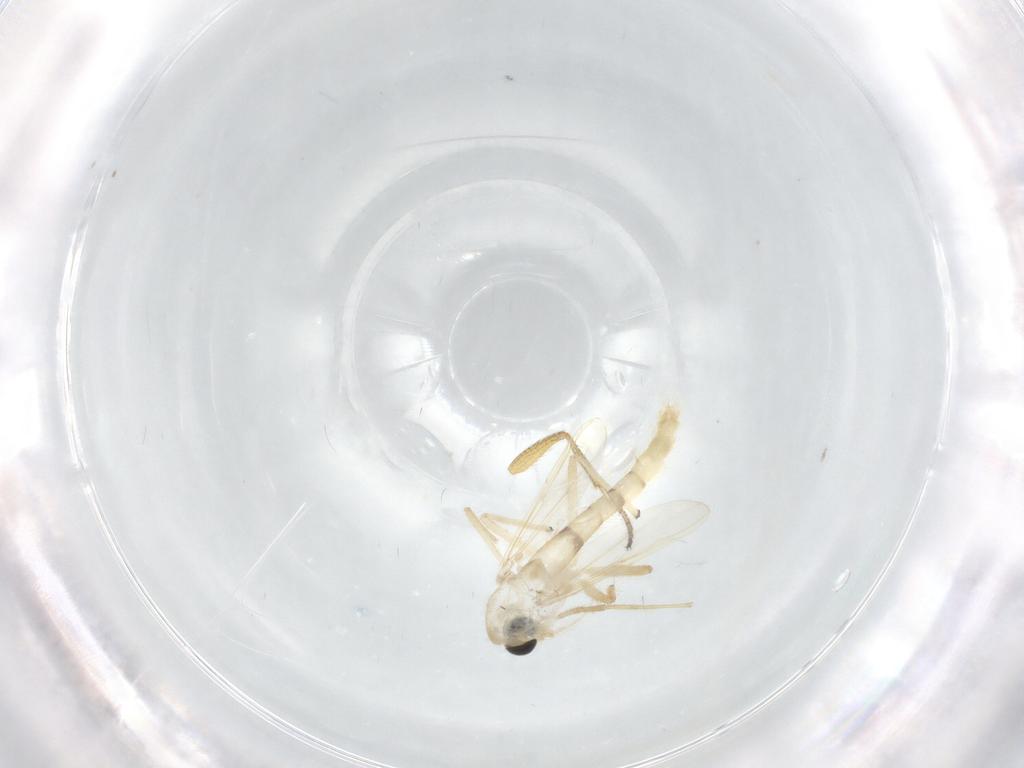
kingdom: Animalia
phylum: Arthropoda
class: Insecta
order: Diptera
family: Chironomidae
